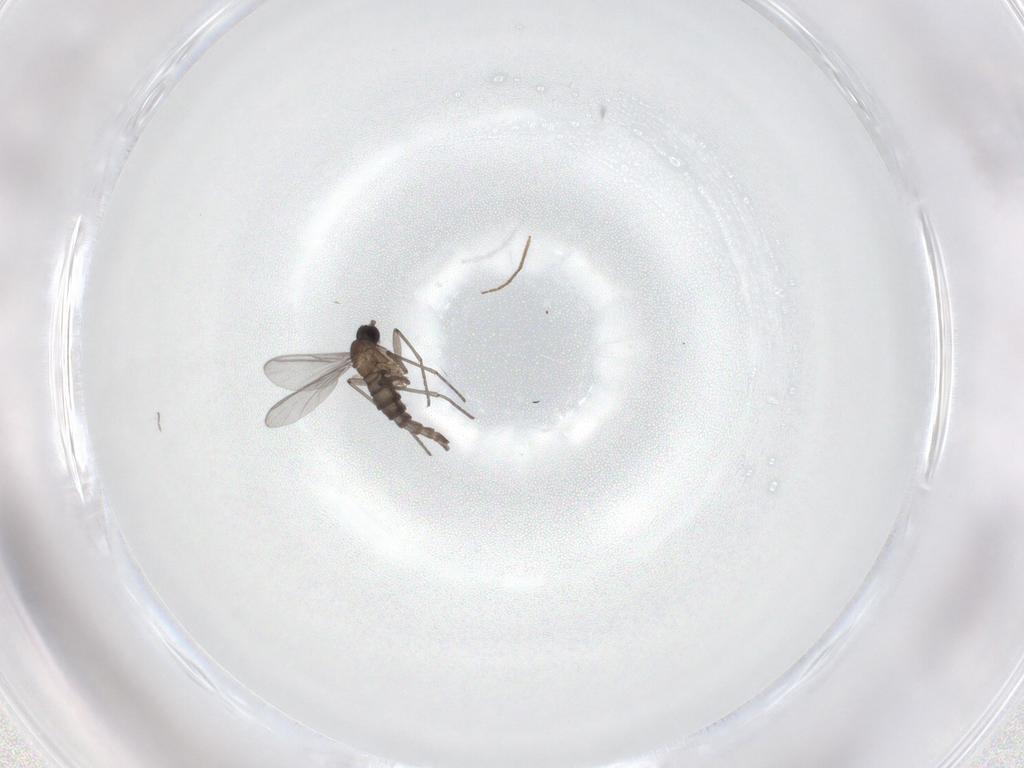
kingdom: Animalia
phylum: Arthropoda
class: Insecta
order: Diptera
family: Chironomidae
